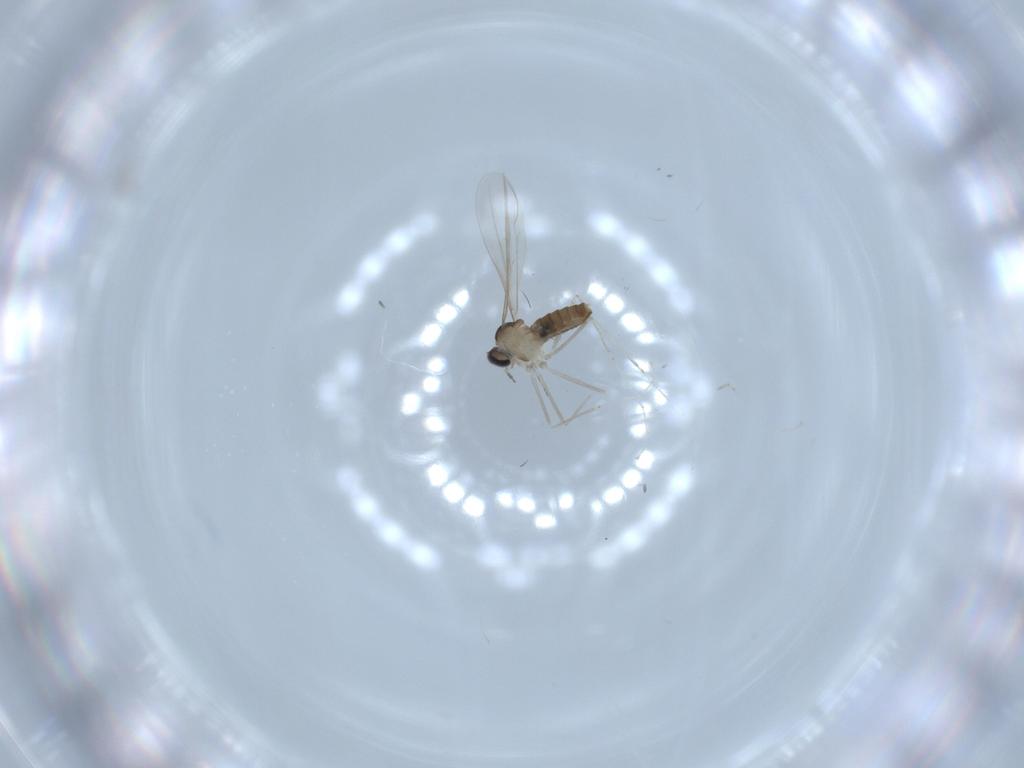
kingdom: Animalia
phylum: Arthropoda
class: Insecta
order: Diptera
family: Cecidomyiidae
